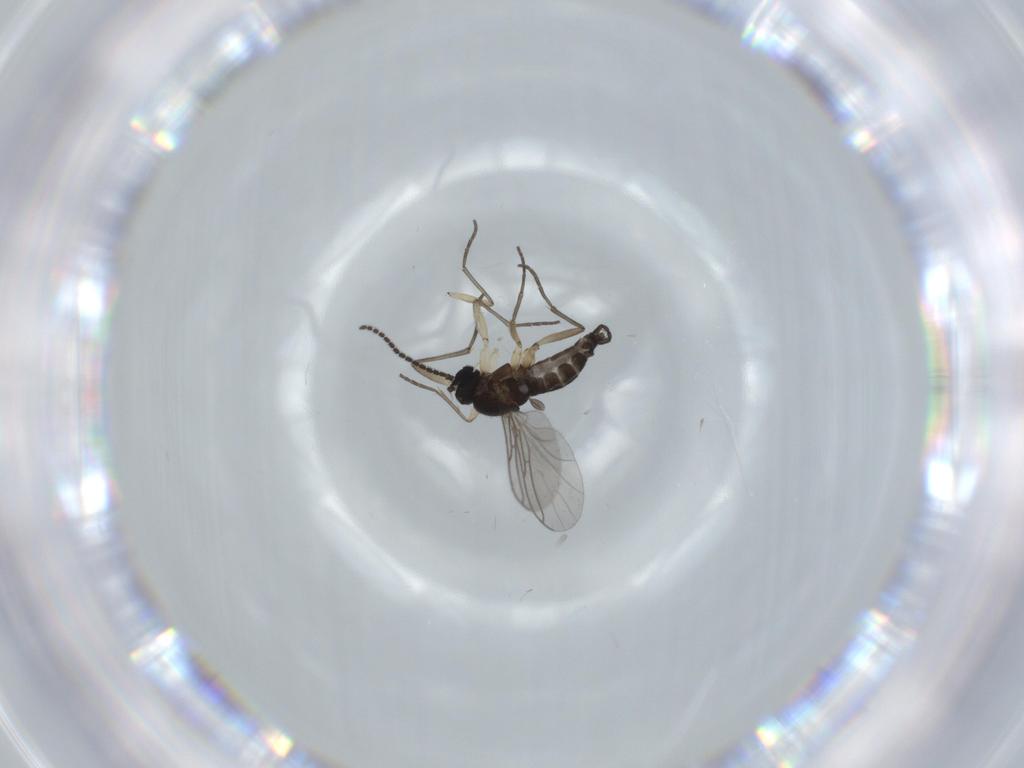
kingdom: Animalia
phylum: Arthropoda
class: Insecta
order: Diptera
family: Sciaridae
